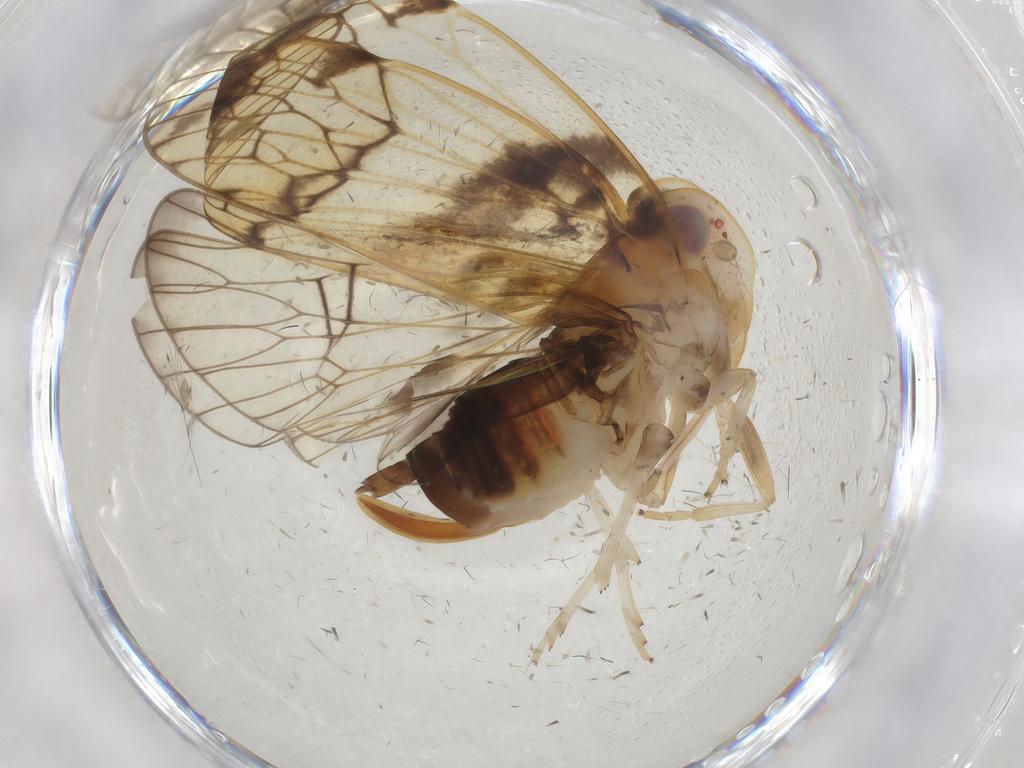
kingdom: Animalia
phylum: Arthropoda
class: Insecta
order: Hemiptera
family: Cixiidae
